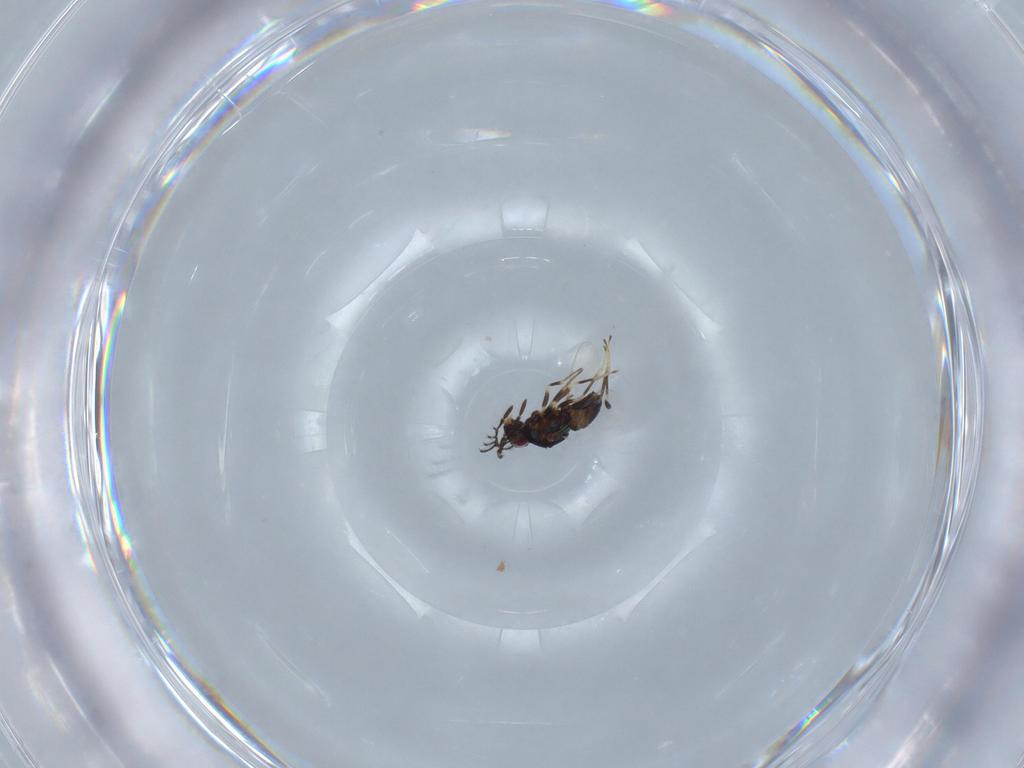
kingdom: Animalia
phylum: Arthropoda
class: Insecta
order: Hymenoptera
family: Encyrtidae
